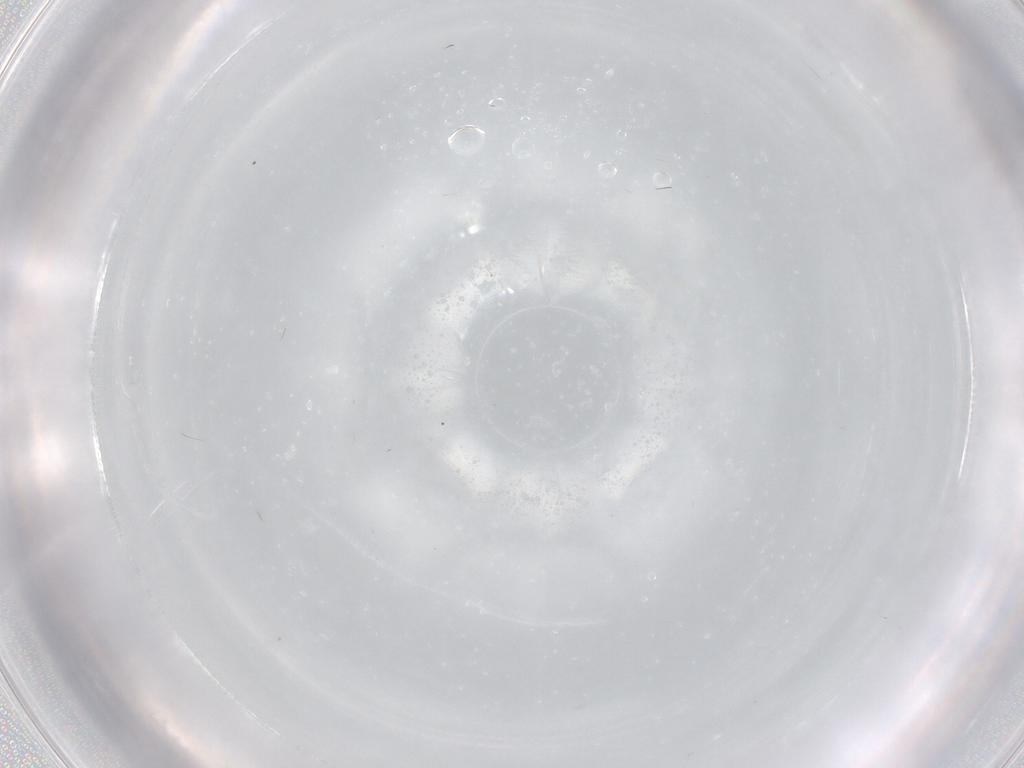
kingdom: Animalia
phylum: Arthropoda
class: Insecta
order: Diptera
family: Cecidomyiidae
